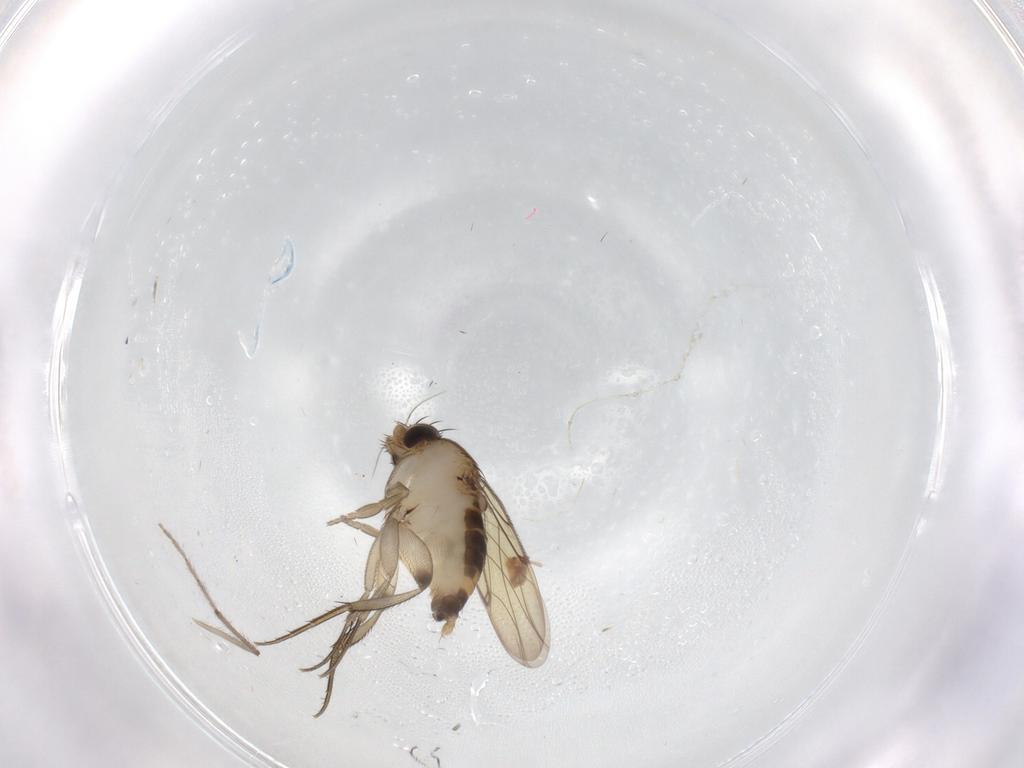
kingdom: Animalia
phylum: Arthropoda
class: Insecta
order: Diptera
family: Phoridae
